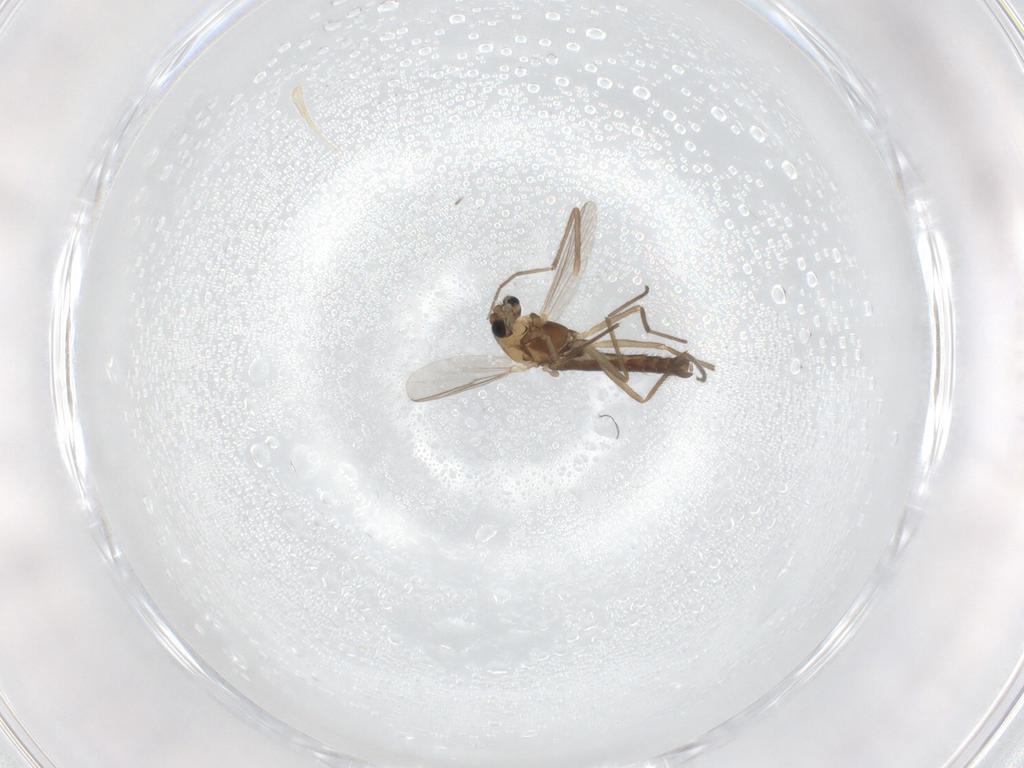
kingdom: Animalia
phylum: Arthropoda
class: Insecta
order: Diptera
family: Chironomidae
